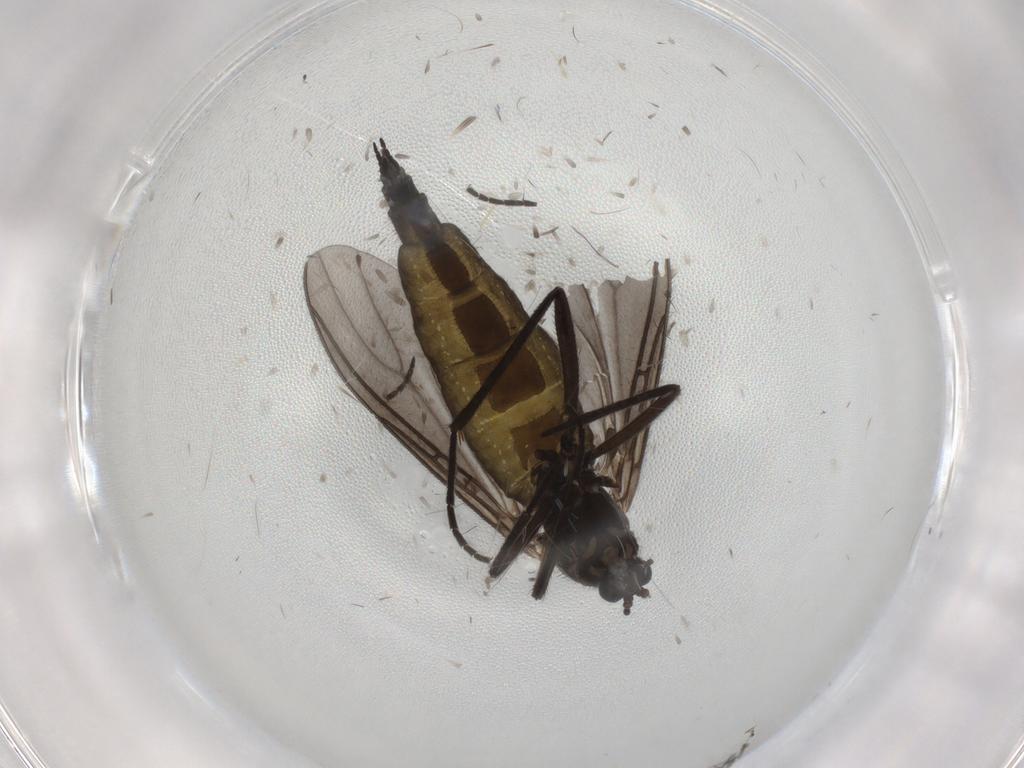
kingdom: Animalia
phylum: Arthropoda
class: Insecta
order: Diptera
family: Sciaridae
